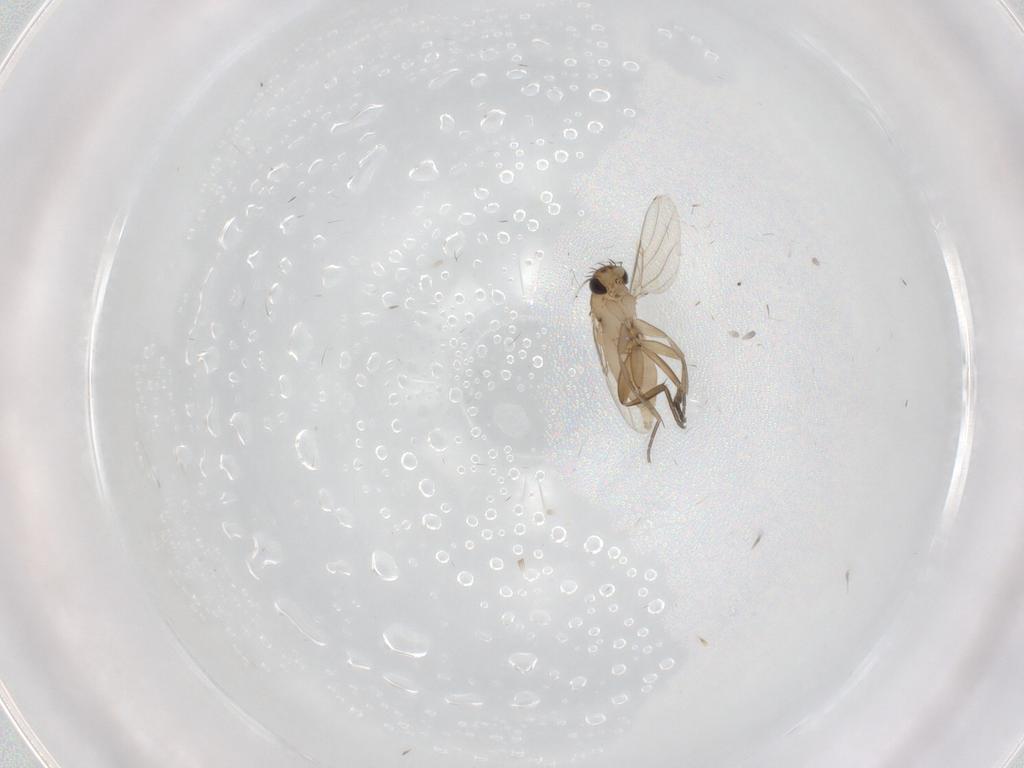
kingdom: Animalia
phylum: Arthropoda
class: Insecta
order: Diptera
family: Phoridae
